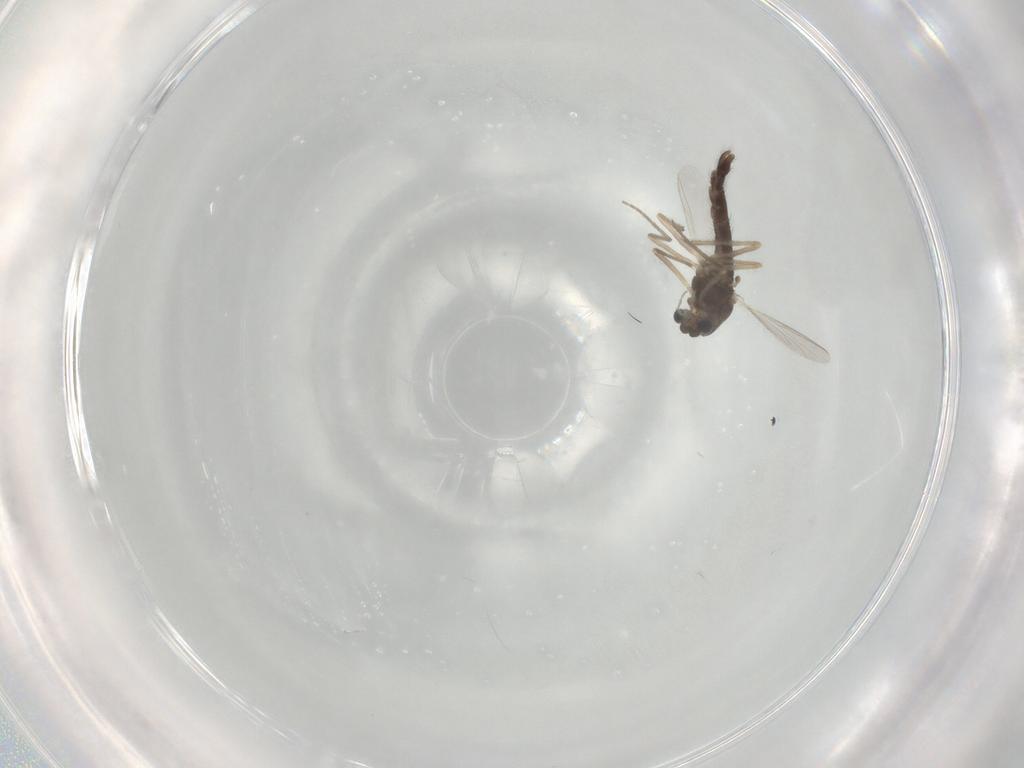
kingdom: Animalia
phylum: Arthropoda
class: Insecta
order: Diptera
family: Chironomidae
